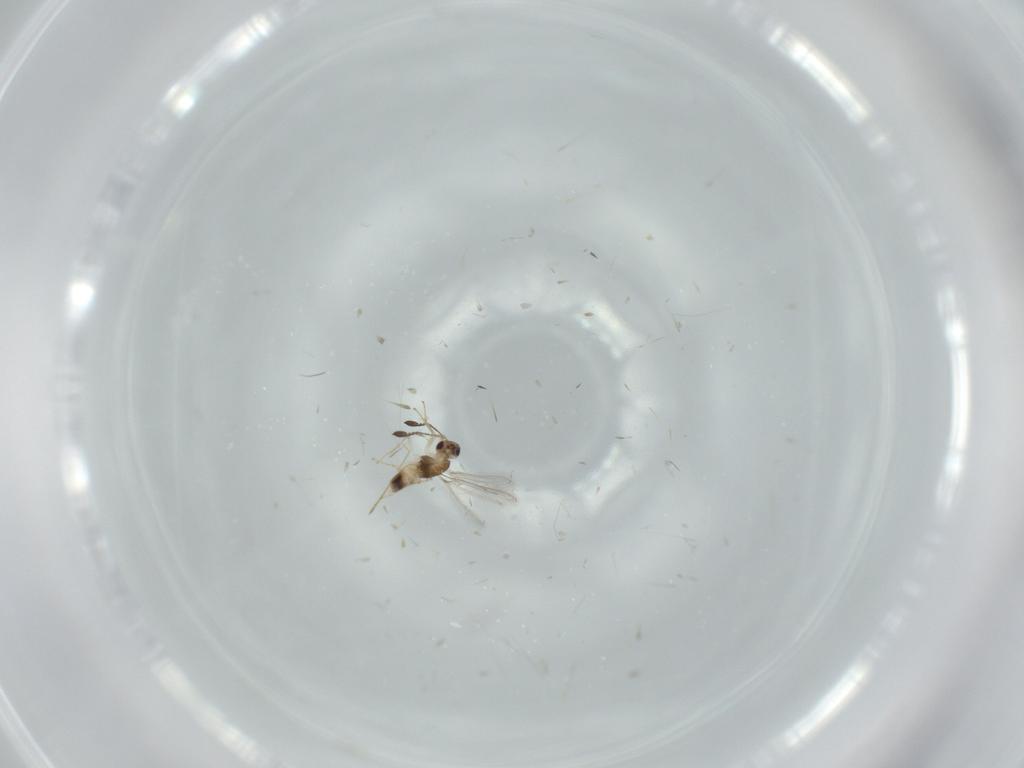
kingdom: Animalia
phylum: Arthropoda
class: Insecta
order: Hymenoptera
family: Mymaridae
